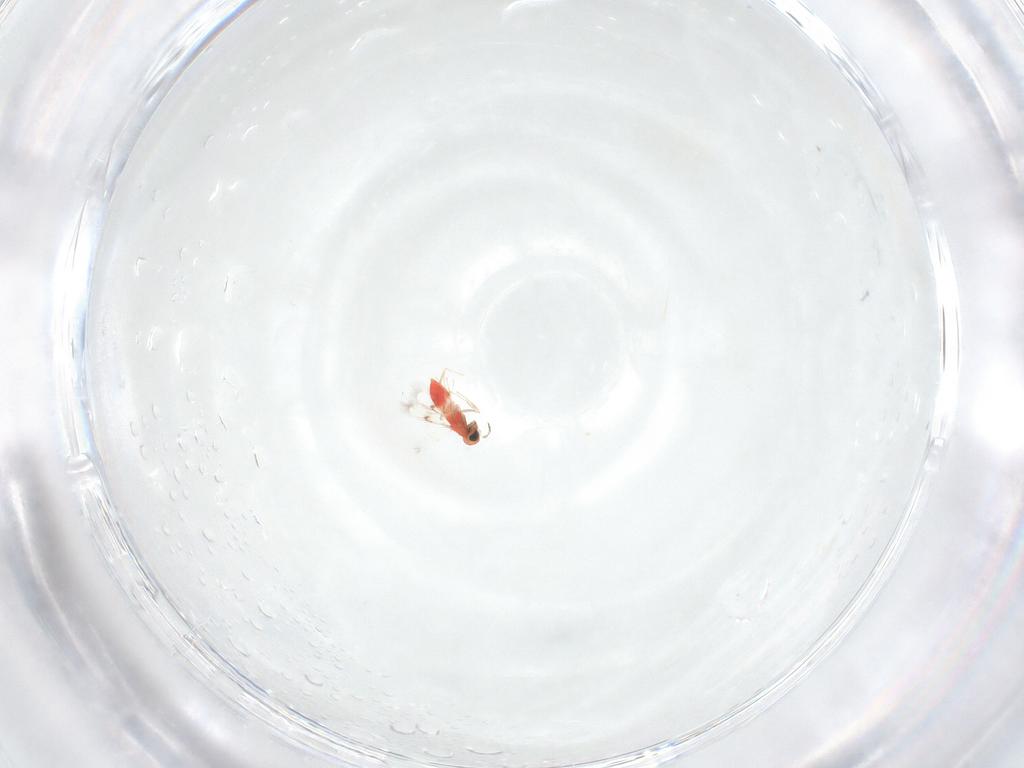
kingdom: Animalia
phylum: Arthropoda
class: Insecta
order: Hymenoptera
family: Trichogrammatidae
